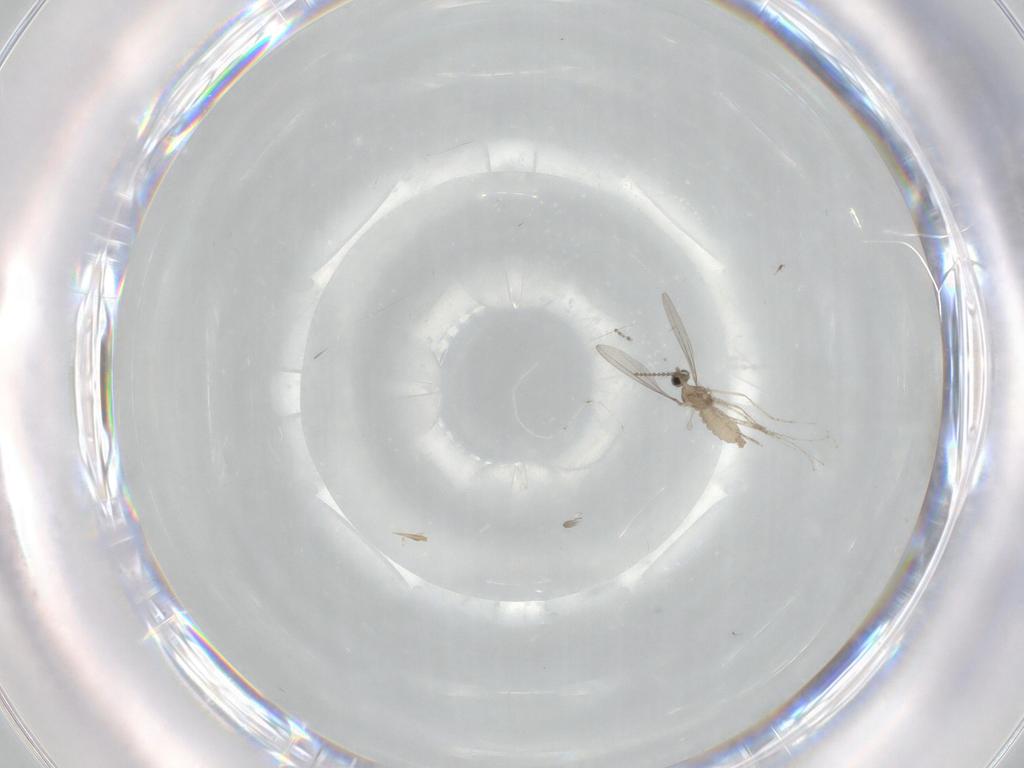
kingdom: Animalia
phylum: Arthropoda
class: Insecta
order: Diptera
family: Cecidomyiidae
